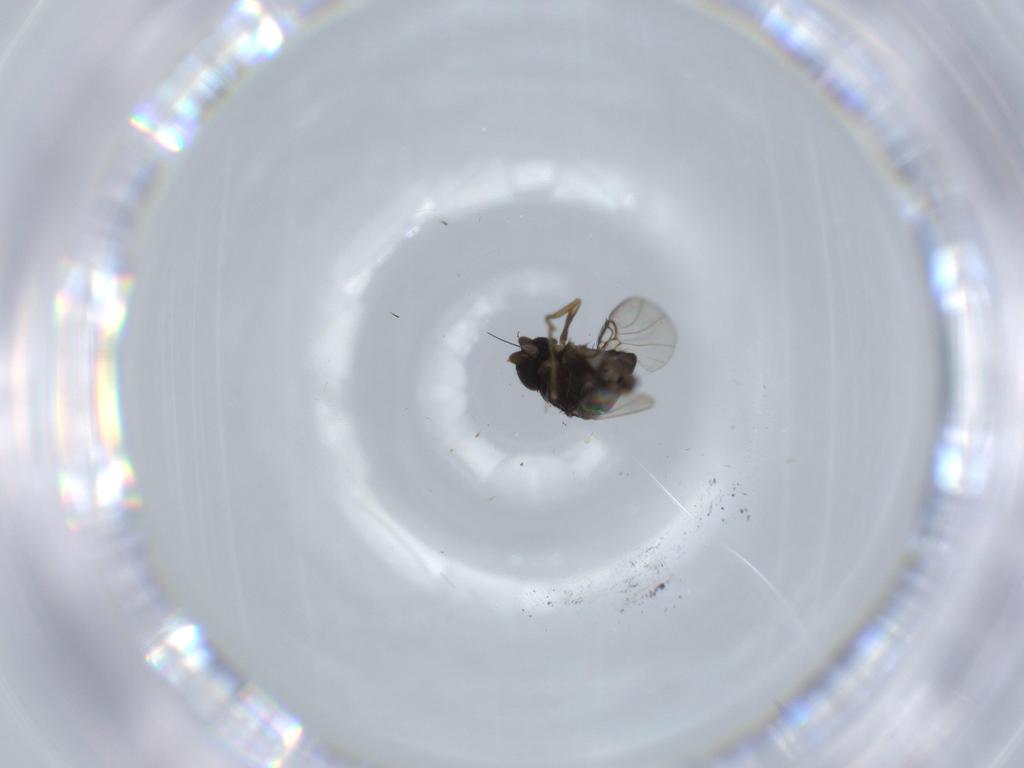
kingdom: Animalia
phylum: Arthropoda
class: Insecta
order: Diptera
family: Phoridae
